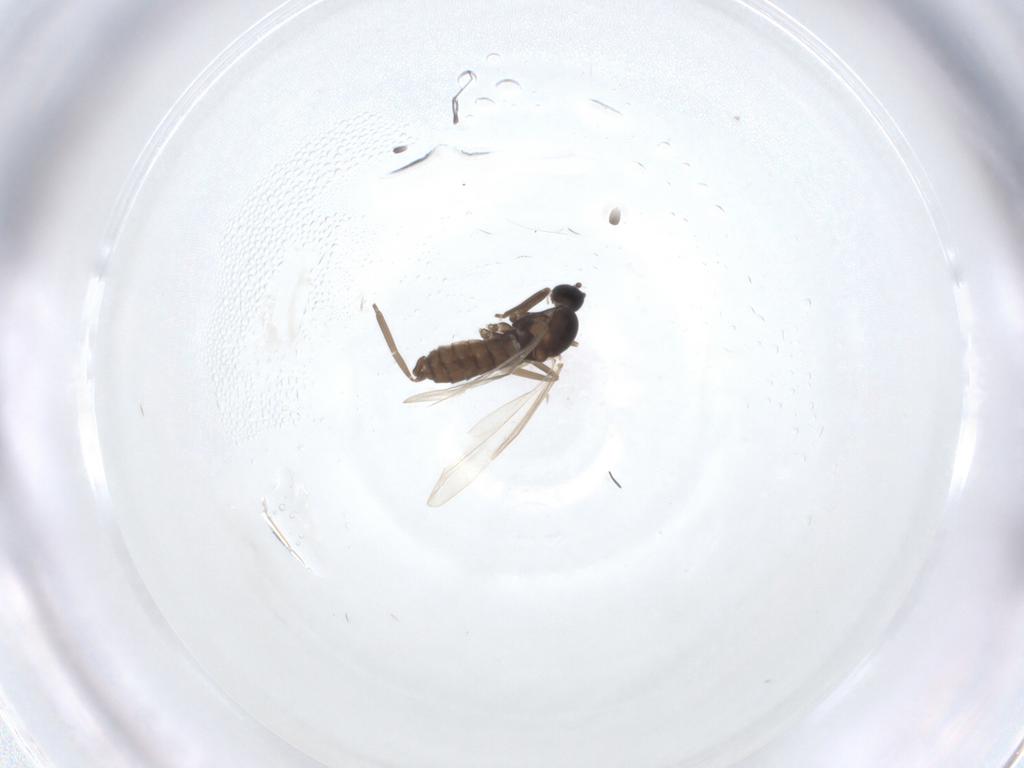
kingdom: Animalia
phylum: Arthropoda
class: Insecta
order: Diptera
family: Cecidomyiidae
